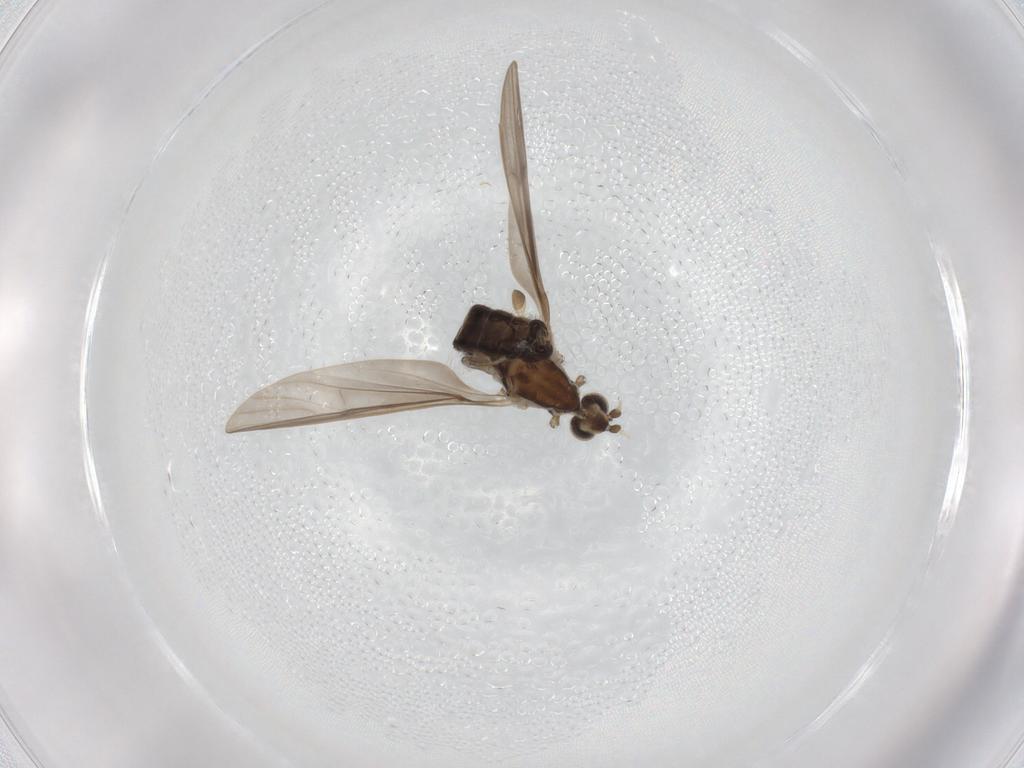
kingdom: Animalia
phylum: Arthropoda
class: Insecta
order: Diptera
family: Limoniidae
